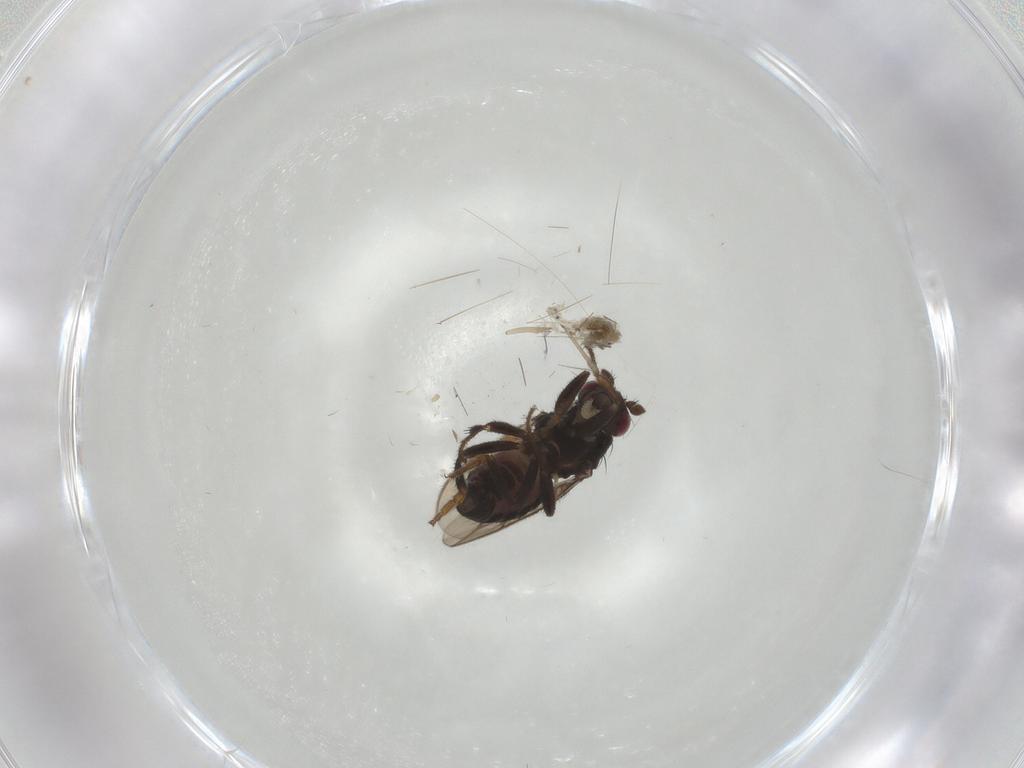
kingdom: Animalia
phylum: Arthropoda
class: Insecta
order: Diptera
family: Sphaeroceridae
